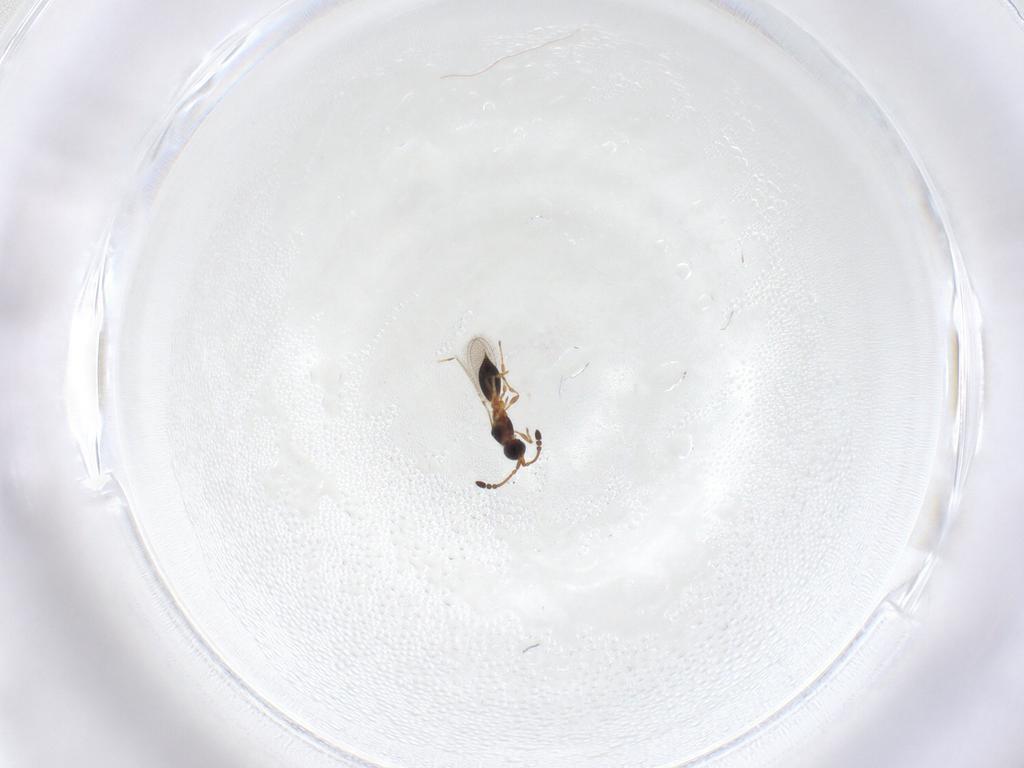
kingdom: Animalia
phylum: Arthropoda
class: Insecta
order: Hymenoptera
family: Diapriidae
